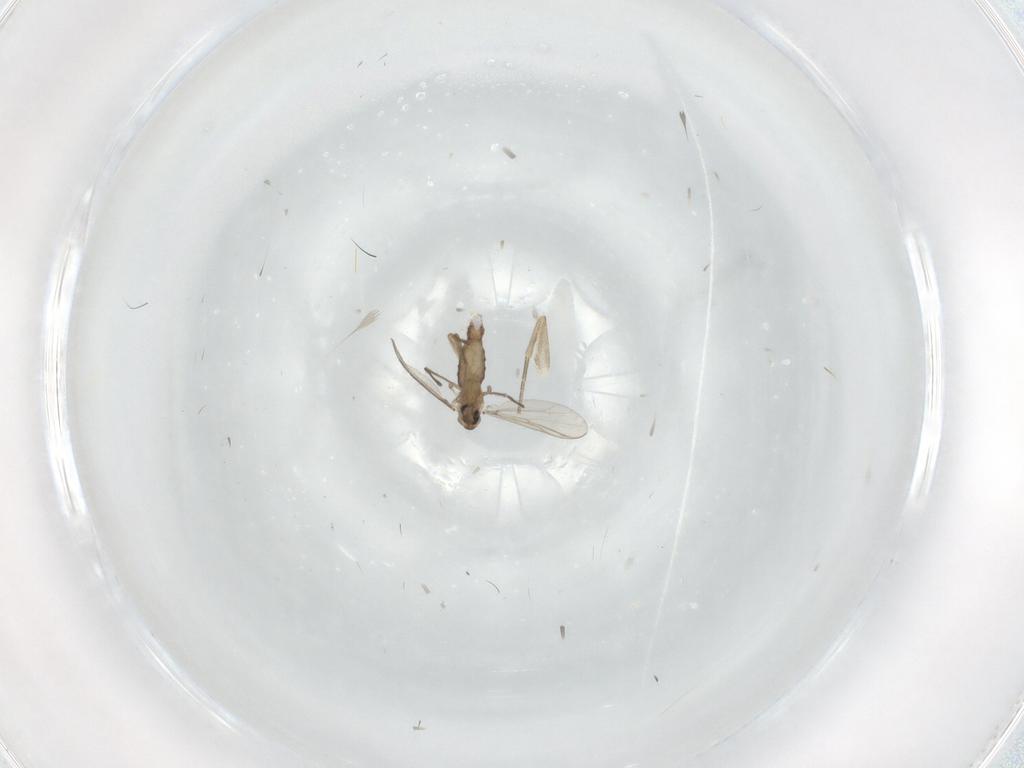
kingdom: Animalia
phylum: Arthropoda
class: Insecta
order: Diptera
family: Chironomidae
